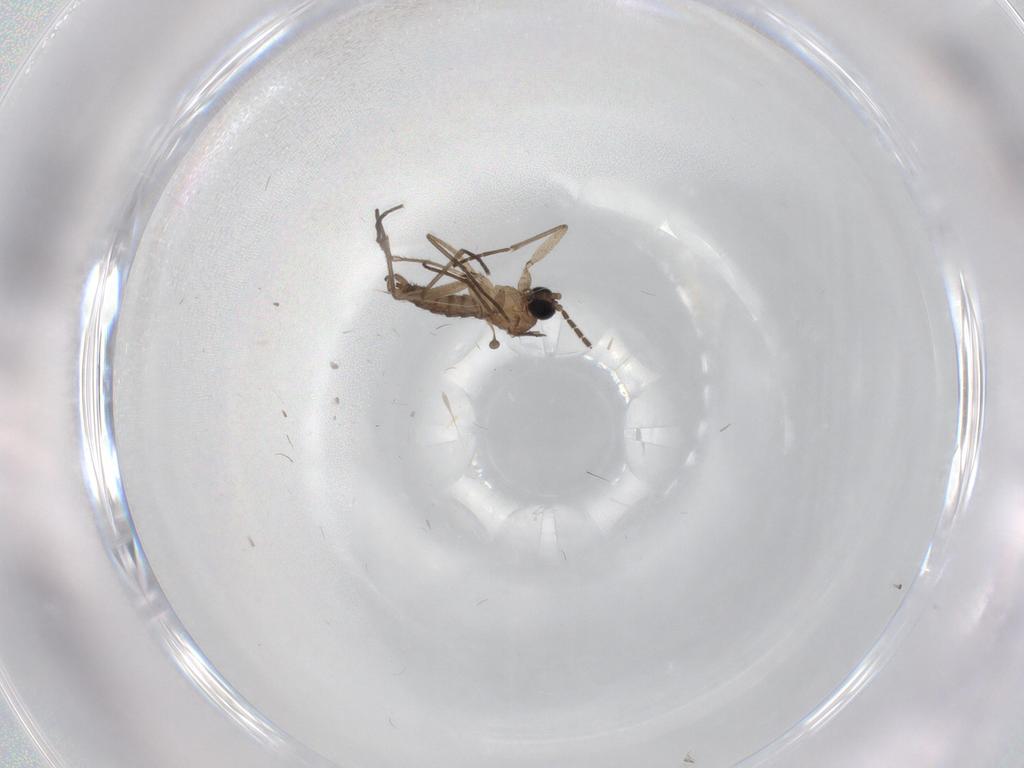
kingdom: Animalia
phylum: Arthropoda
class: Insecta
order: Diptera
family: Sciaridae
